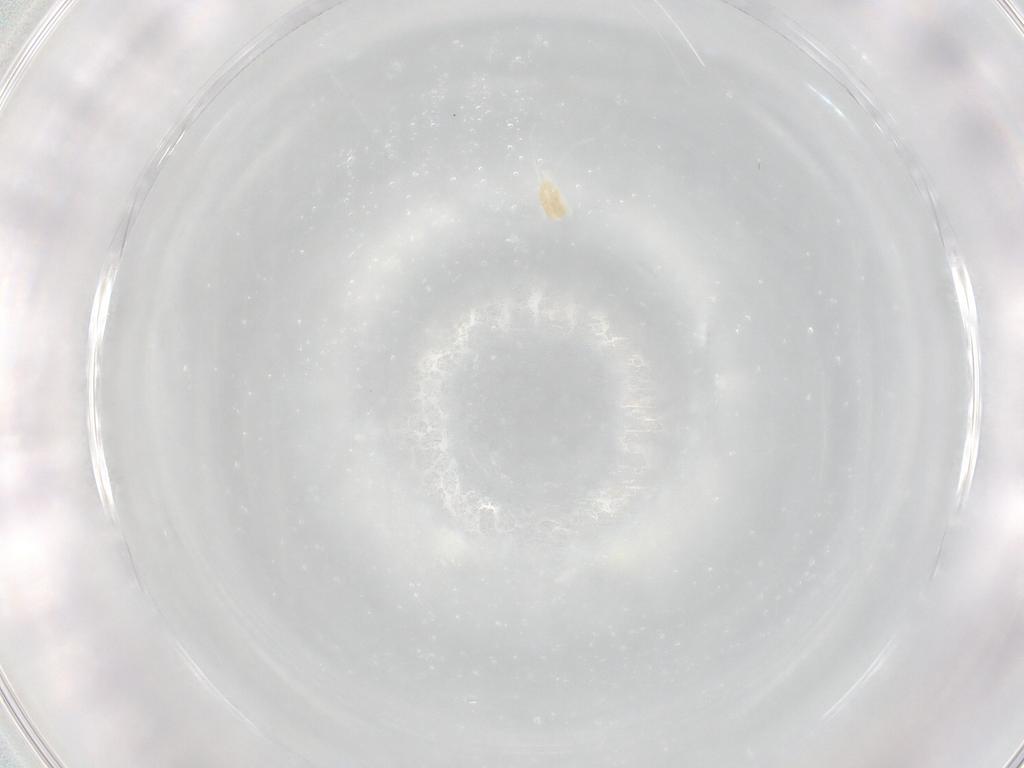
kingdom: Animalia
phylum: Arthropoda
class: Arachnida
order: Trombidiformes
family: Eupodidae
